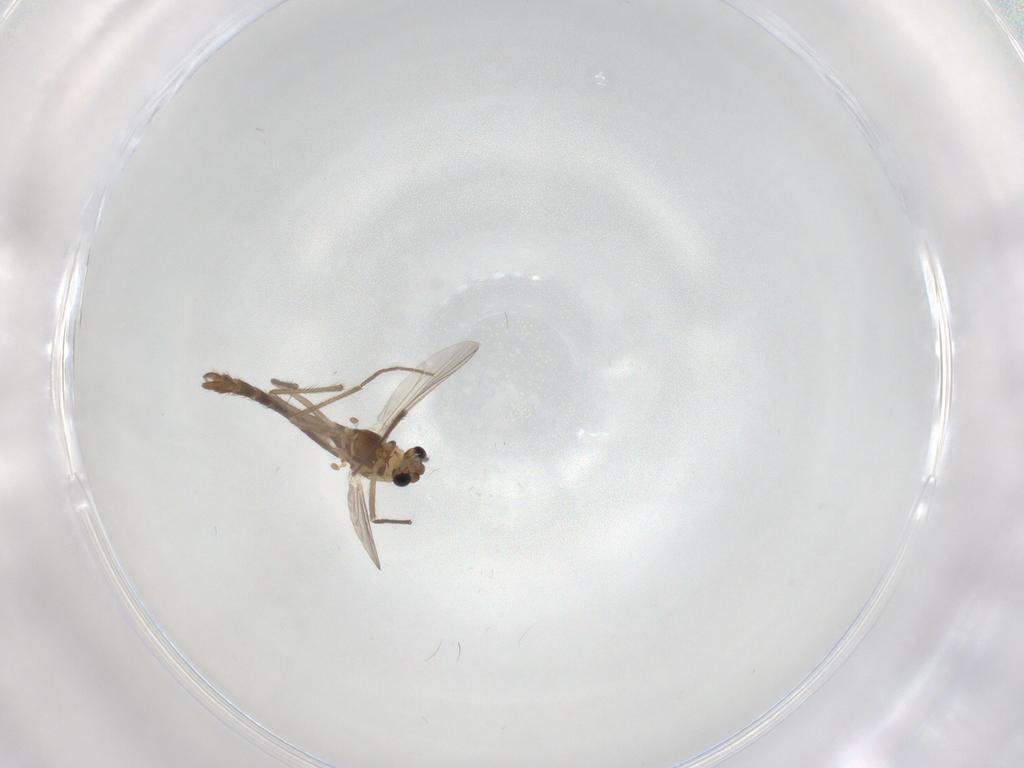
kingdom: Animalia
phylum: Arthropoda
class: Insecta
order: Diptera
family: Chironomidae
